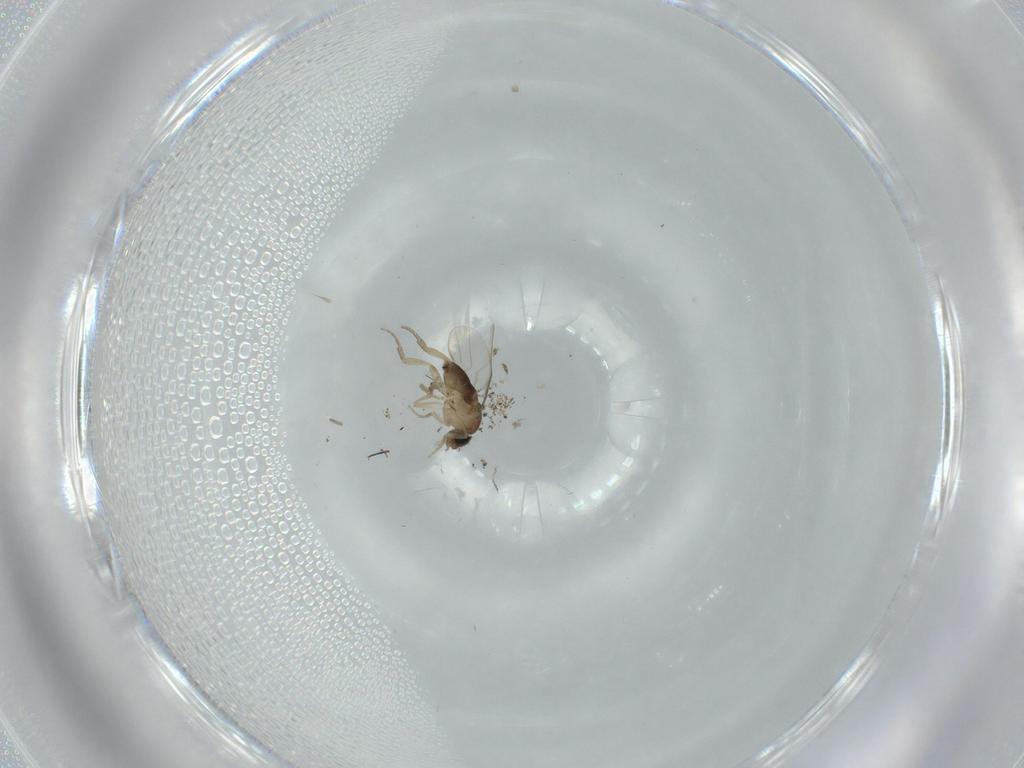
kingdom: Animalia
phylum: Arthropoda
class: Insecta
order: Diptera
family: Phoridae
